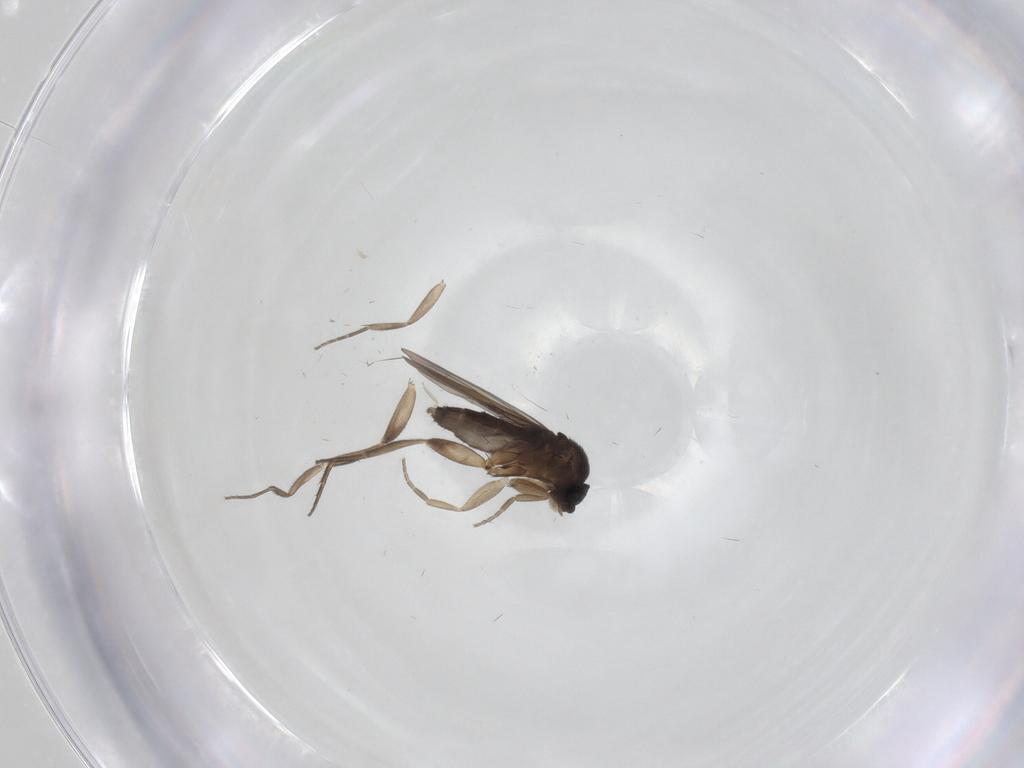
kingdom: Animalia
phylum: Arthropoda
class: Insecta
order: Diptera
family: Phoridae
